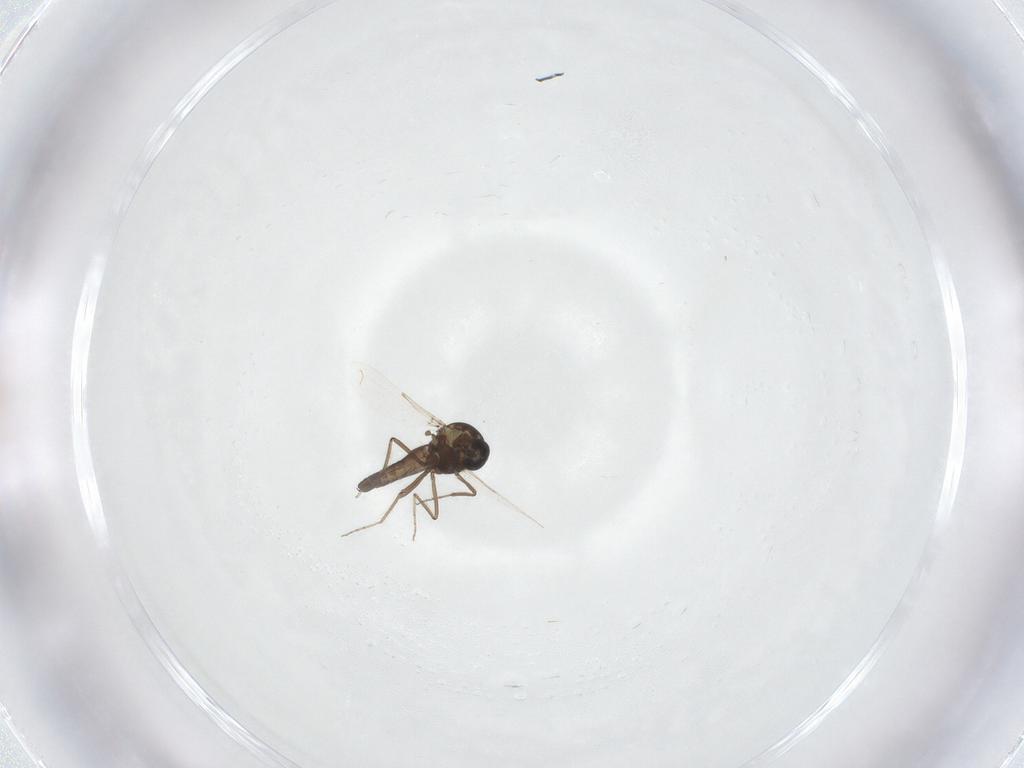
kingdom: Animalia
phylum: Arthropoda
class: Insecta
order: Diptera
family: Ceratopogonidae
